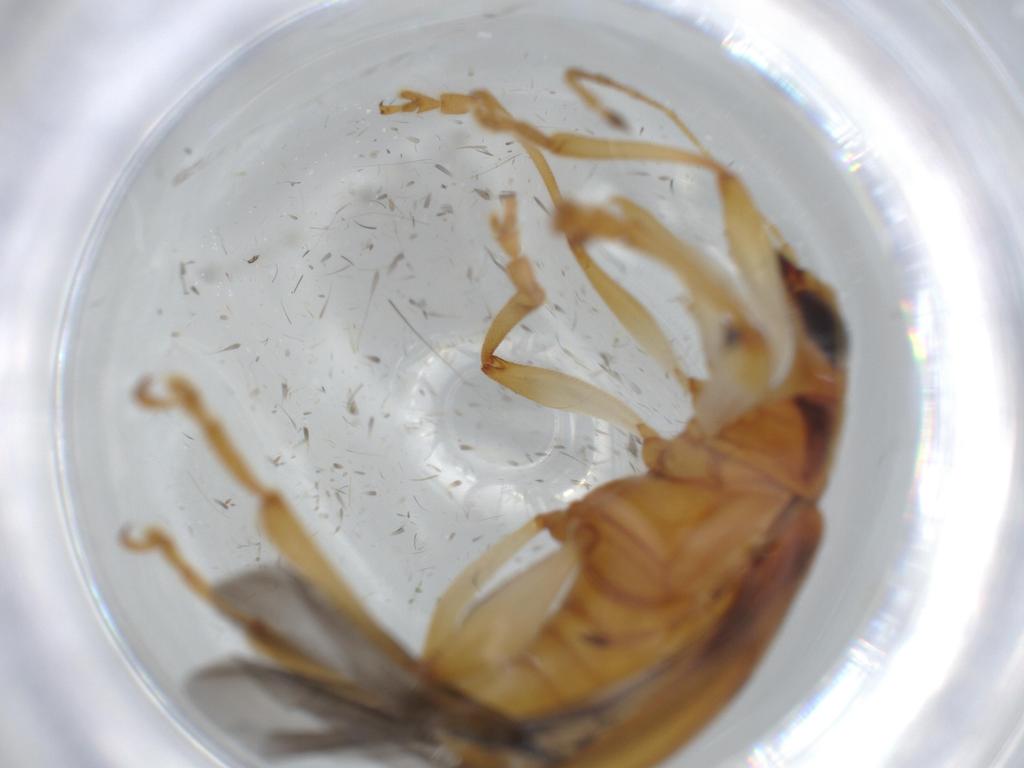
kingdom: Animalia
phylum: Arthropoda
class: Insecta
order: Coleoptera
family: Chrysomelidae
